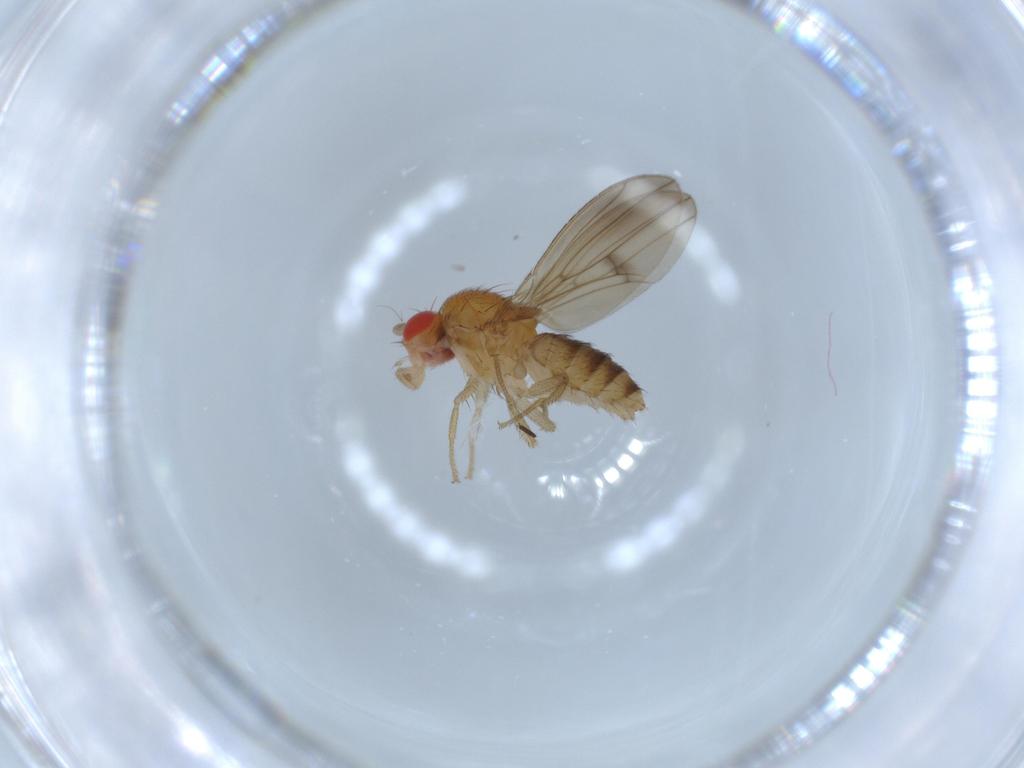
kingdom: Animalia
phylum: Arthropoda
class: Insecta
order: Diptera
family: Drosophilidae
